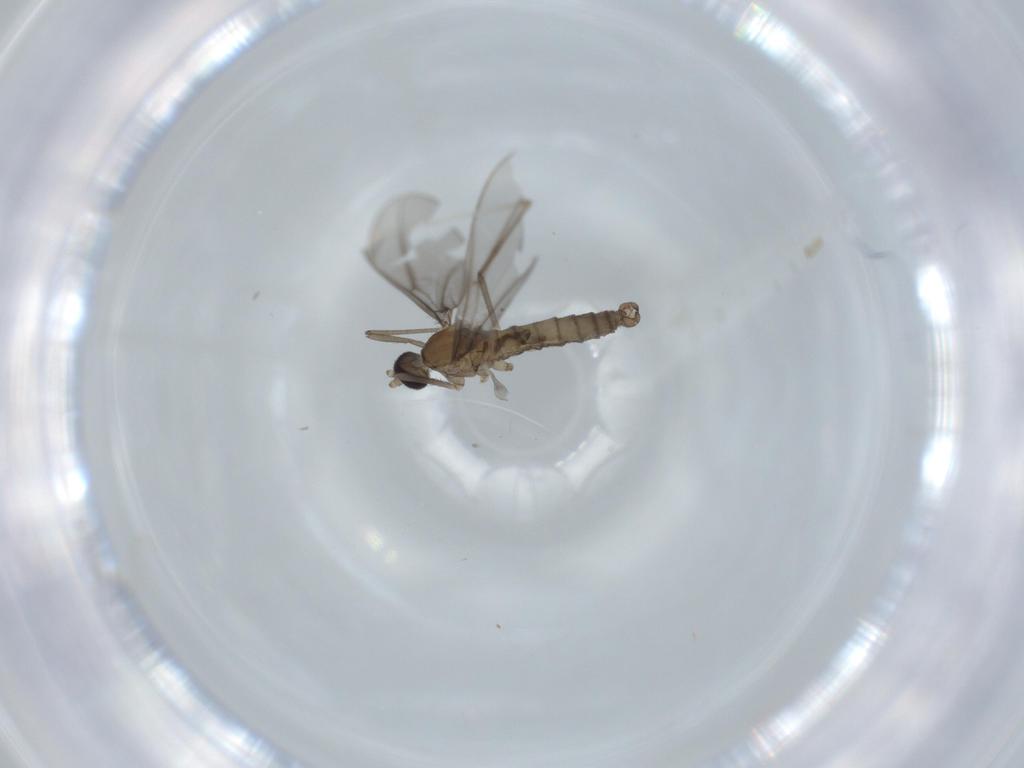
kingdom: Animalia
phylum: Arthropoda
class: Insecta
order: Diptera
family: Cecidomyiidae
